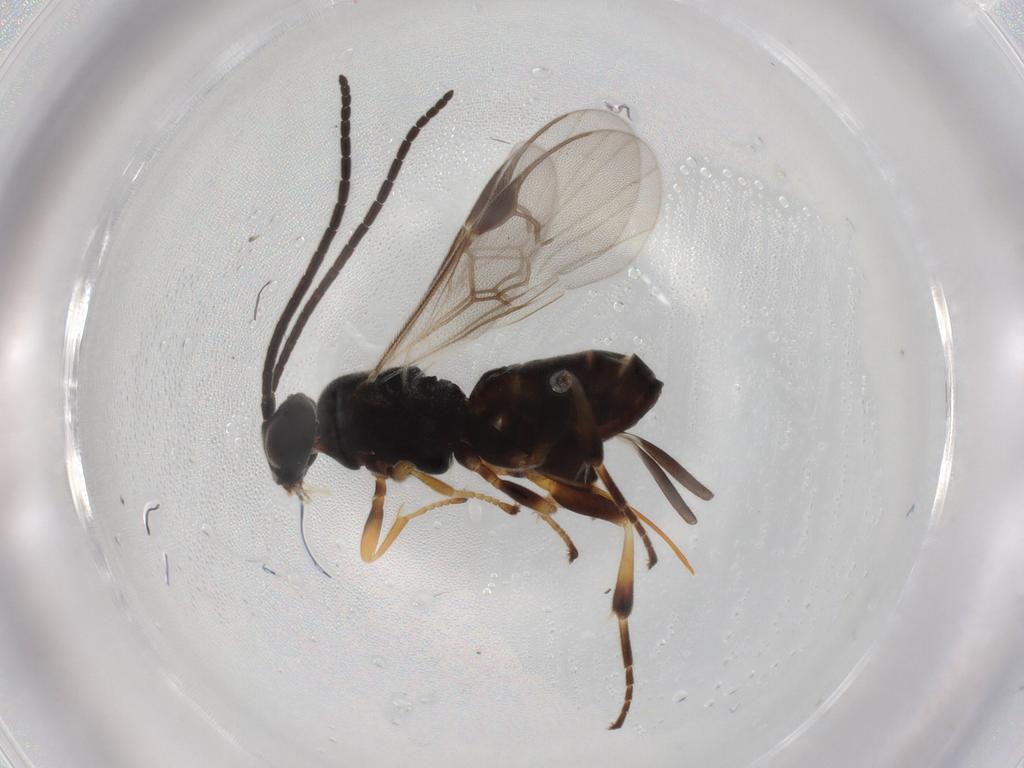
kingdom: Animalia
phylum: Arthropoda
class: Insecta
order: Hymenoptera
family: Braconidae
